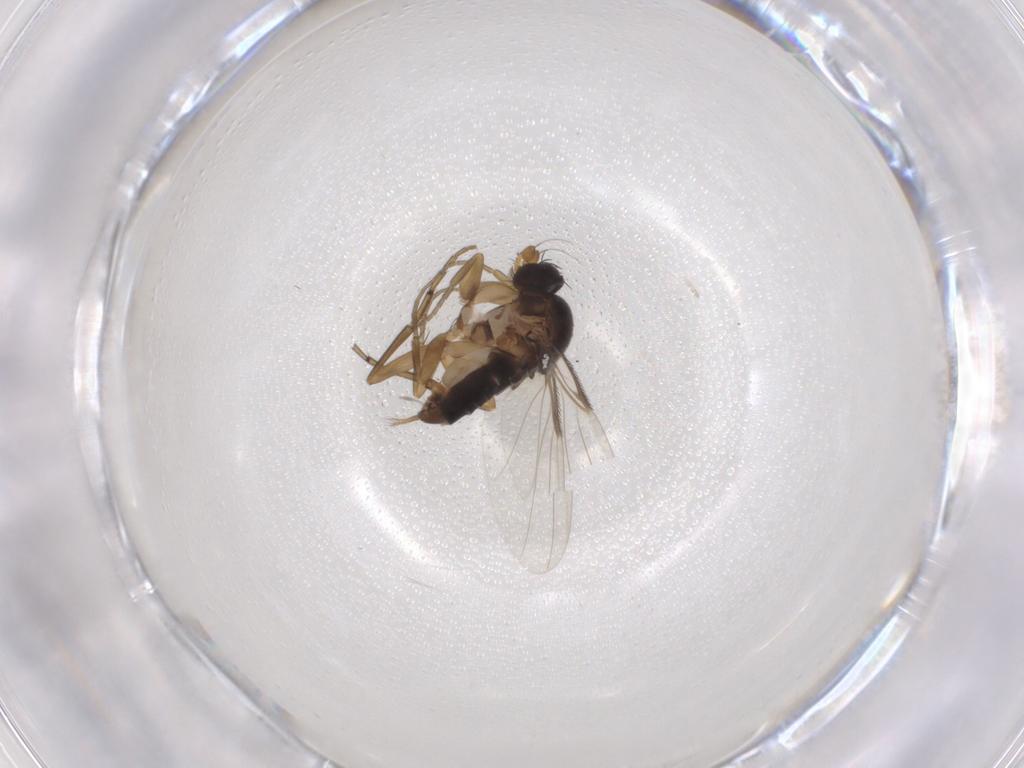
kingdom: Animalia
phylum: Arthropoda
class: Insecta
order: Diptera
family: Phoridae
